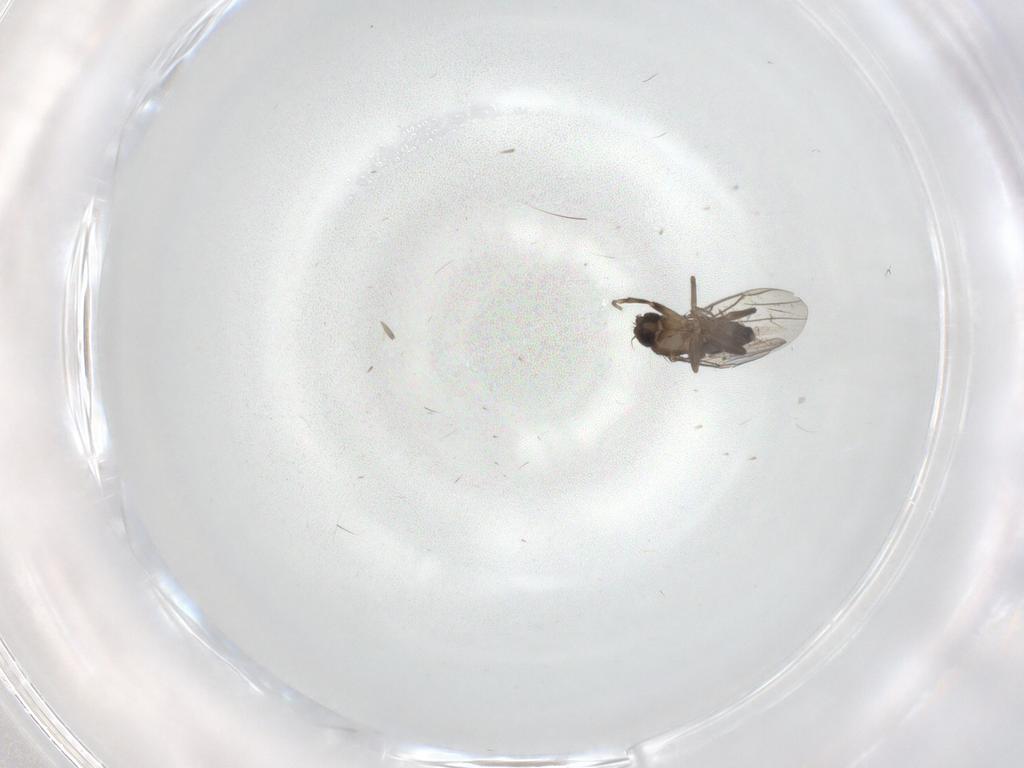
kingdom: Animalia
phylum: Arthropoda
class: Insecta
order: Diptera
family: Phoridae
